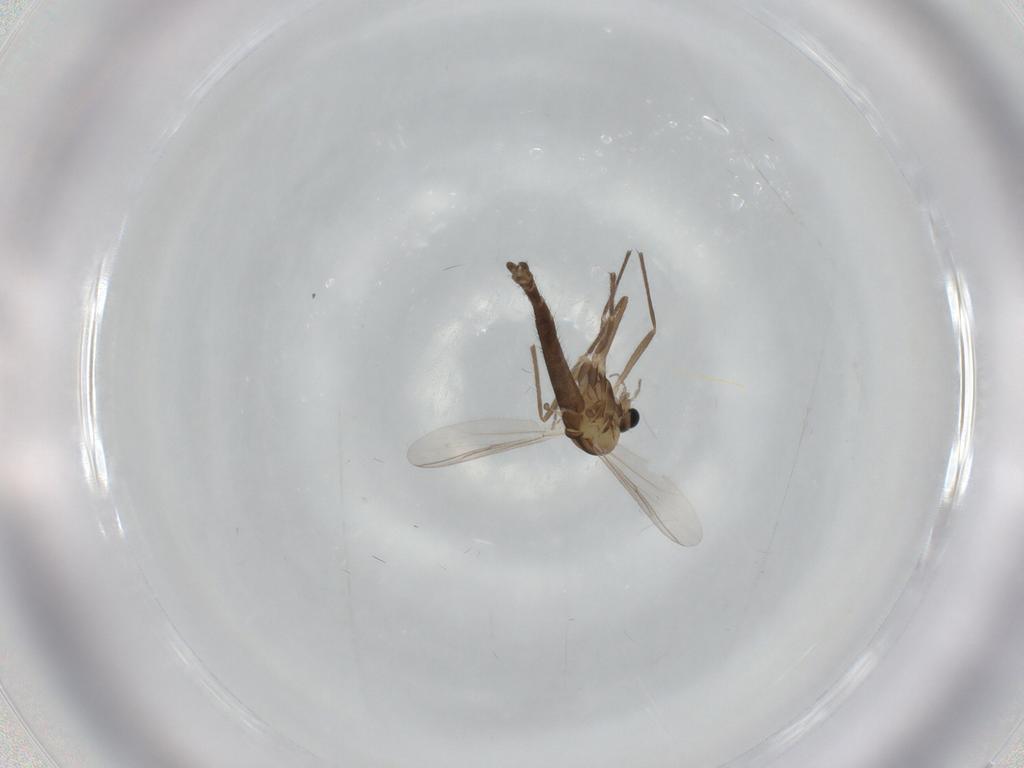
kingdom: Animalia
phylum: Arthropoda
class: Insecta
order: Diptera
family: Chironomidae
